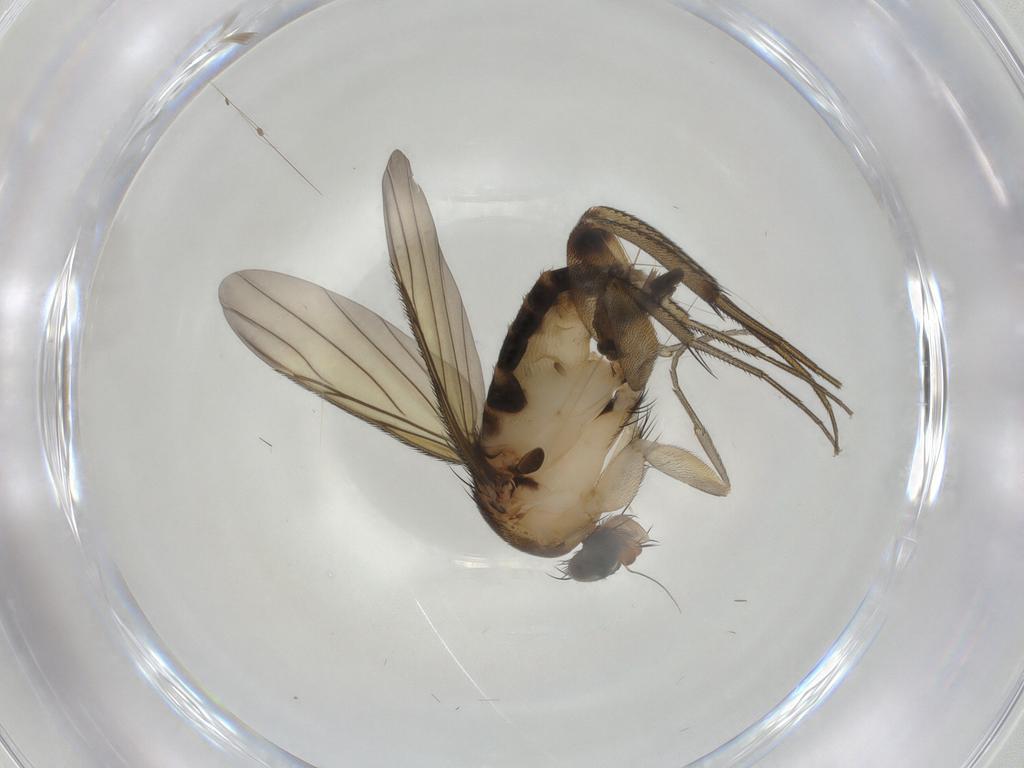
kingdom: Animalia
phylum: Arthropoda
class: Insecta
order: Diptera
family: Phoridae
